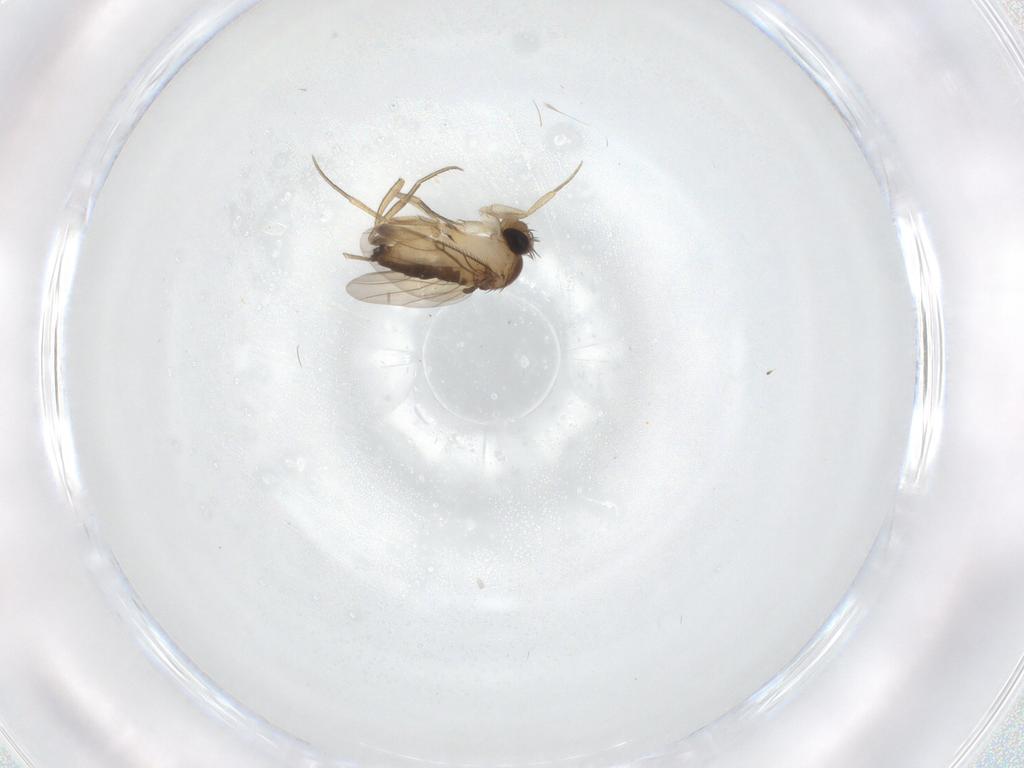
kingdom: Animalia
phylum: Arthropoda
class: Insecta
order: Diptera
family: Phoridae
